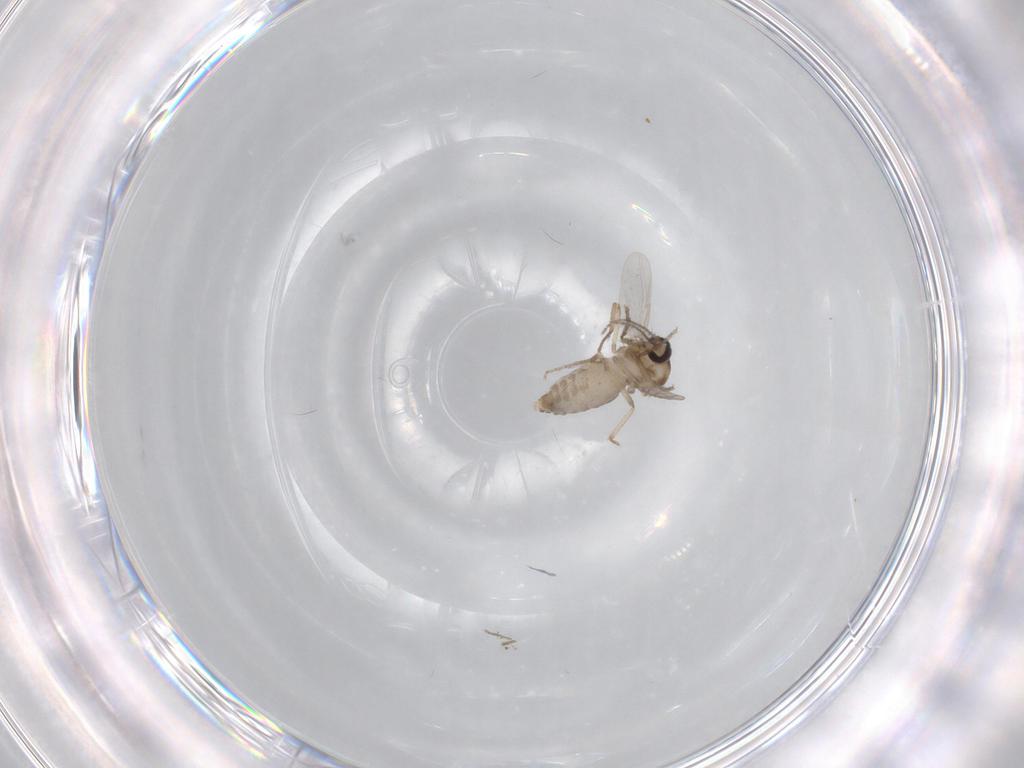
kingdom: Animalia
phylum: Arthropoda
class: Insecta
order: Diptera
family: Ceratopogonidae
